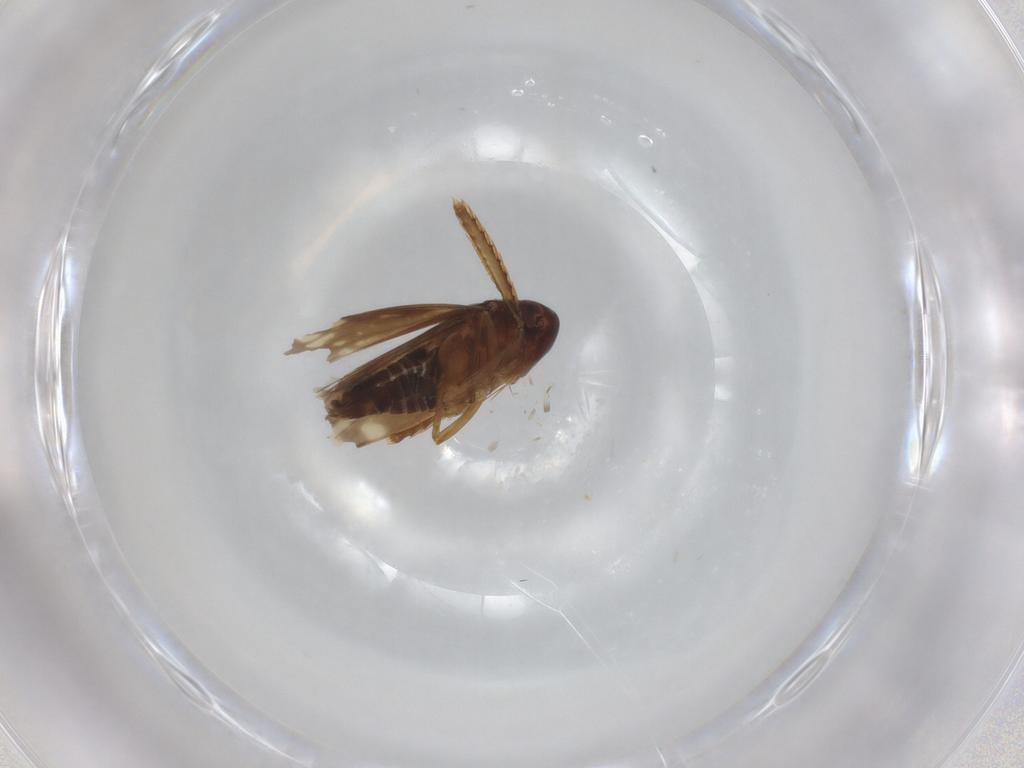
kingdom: Animalia
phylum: Arthropoda
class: Insecta
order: Hemiptera
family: Cicadellidae
